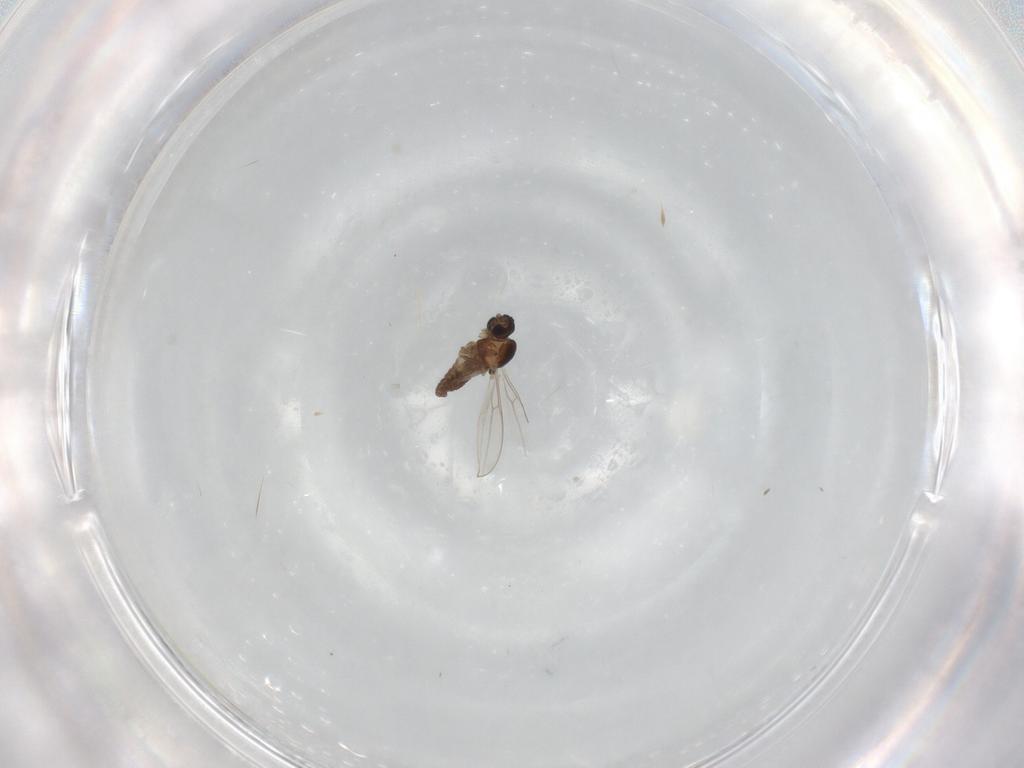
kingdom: Animalia
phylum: Arthropoda
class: Insecta
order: Diptera
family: Cecidomyiidae
